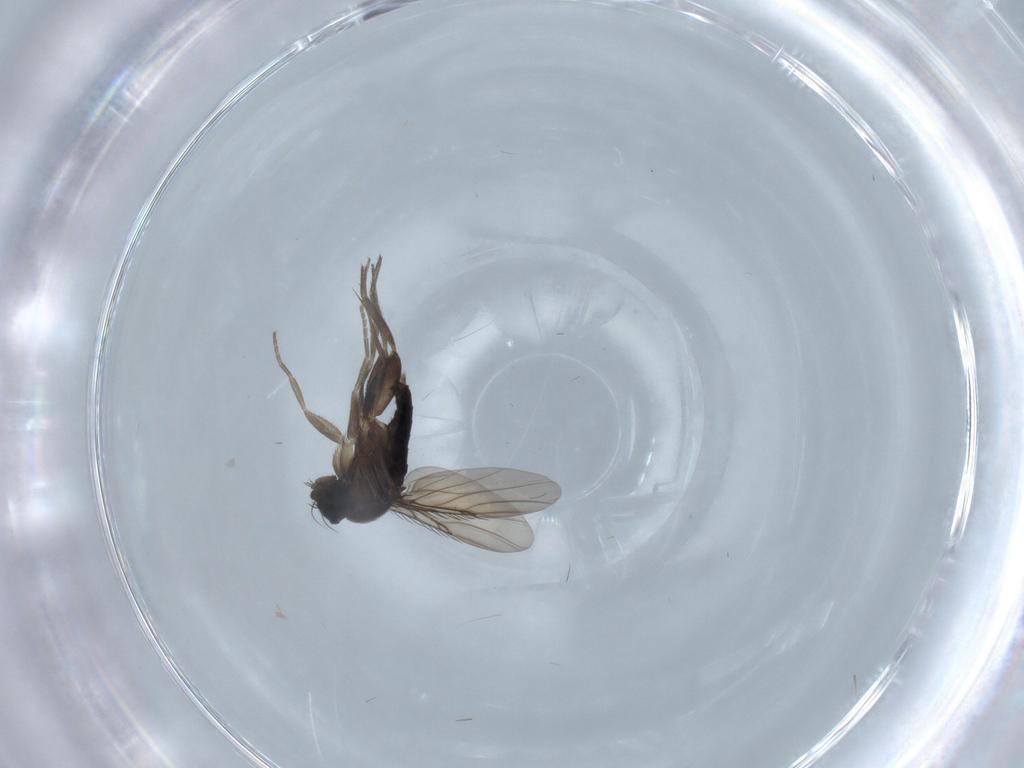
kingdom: Animalia
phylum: Arthropoda
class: Insecta
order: Diptera
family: Phoridae
